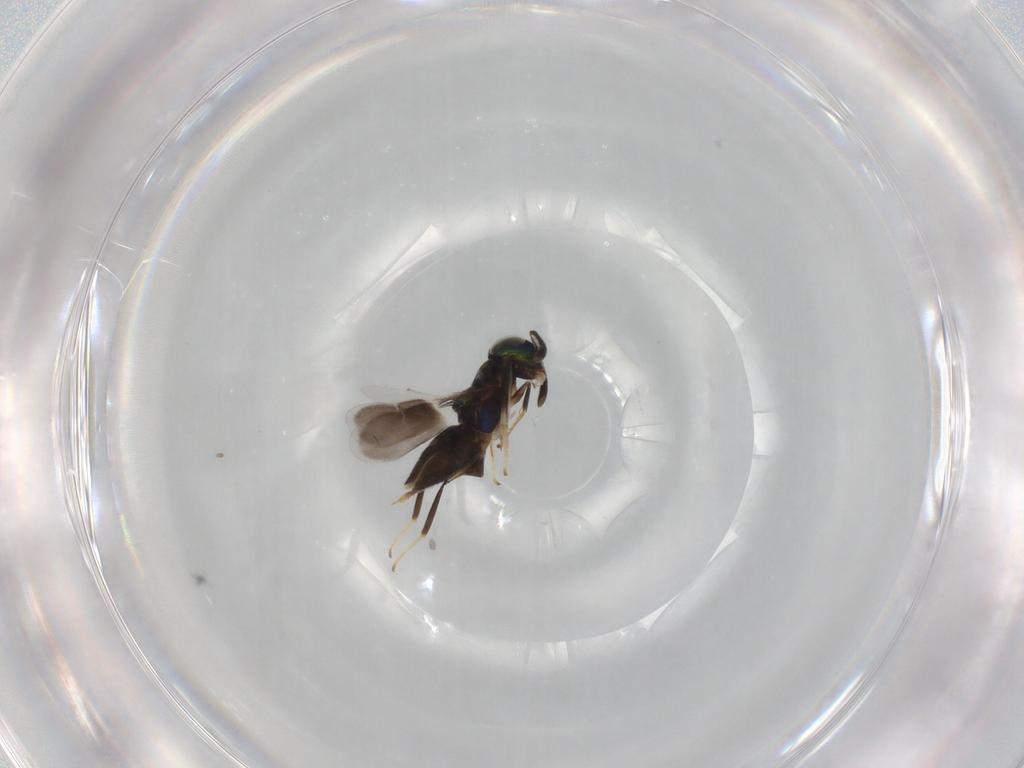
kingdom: Animalia
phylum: Arthropoda
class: Insecta
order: Hymenoptera
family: Encyrtidae
